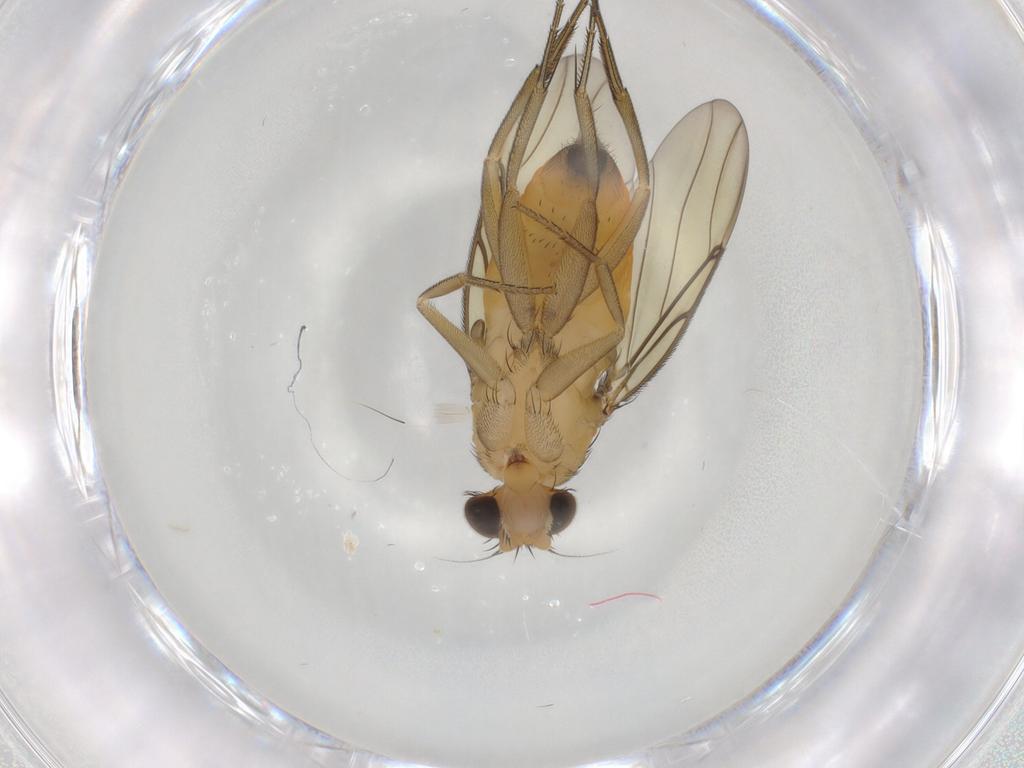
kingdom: Animalia
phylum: Arthropoda
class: Insecta
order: Diptera
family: Phoridae
